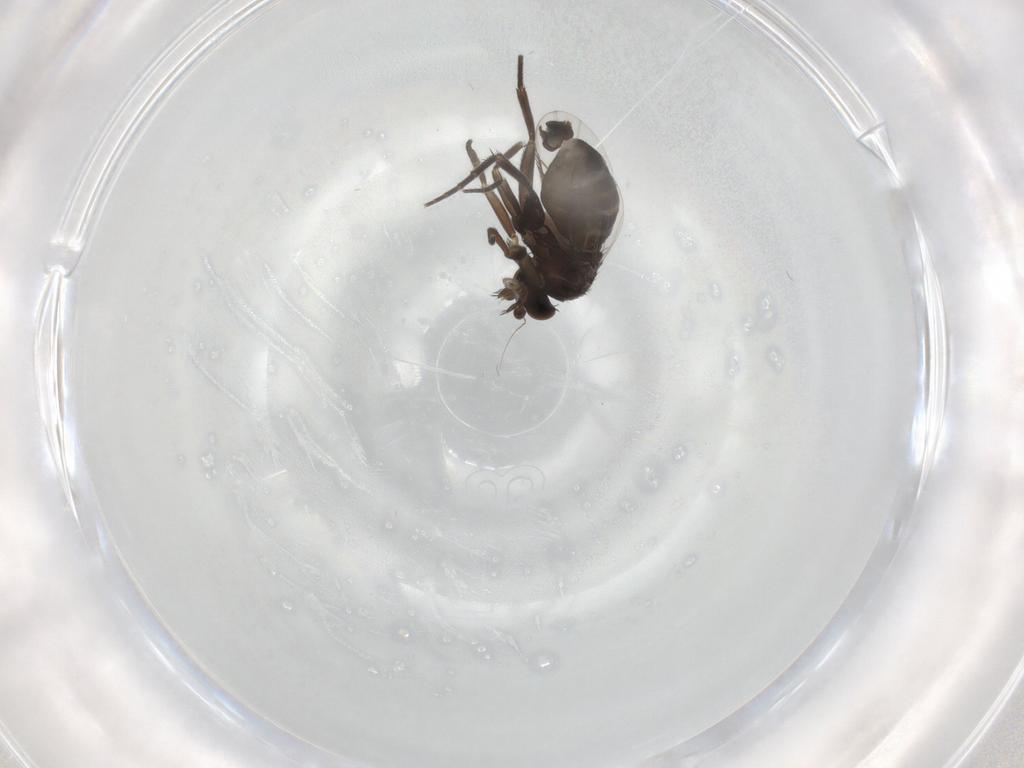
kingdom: Animalia
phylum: Arthropoda
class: Insecta
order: Diptera
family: Phoridae
